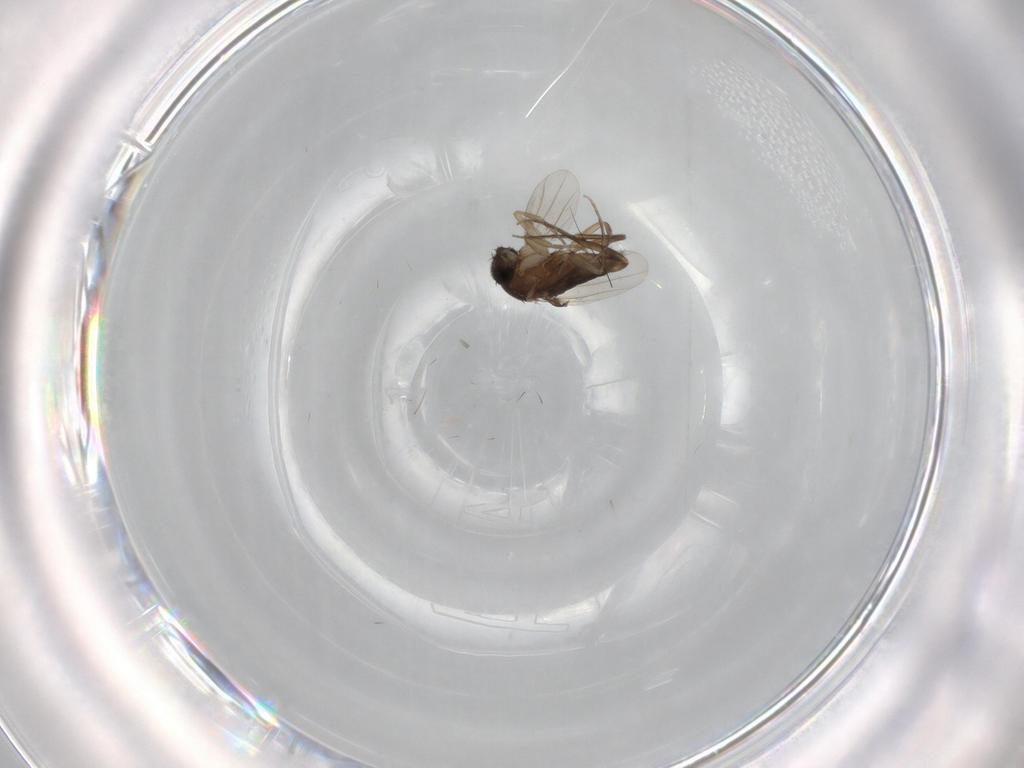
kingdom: Animalia
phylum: Arthropoda
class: Insecta
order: Diptera
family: Phoridae
